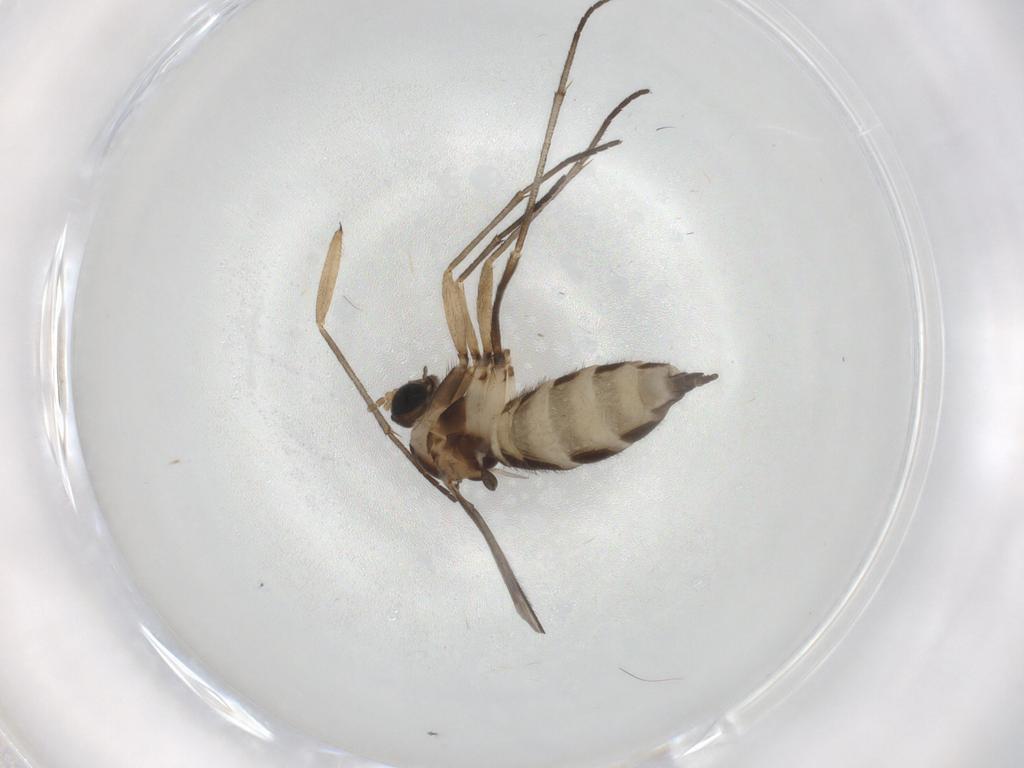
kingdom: Animalia
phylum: Arthropoda
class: Insecta
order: Diptera
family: Sciaridae
